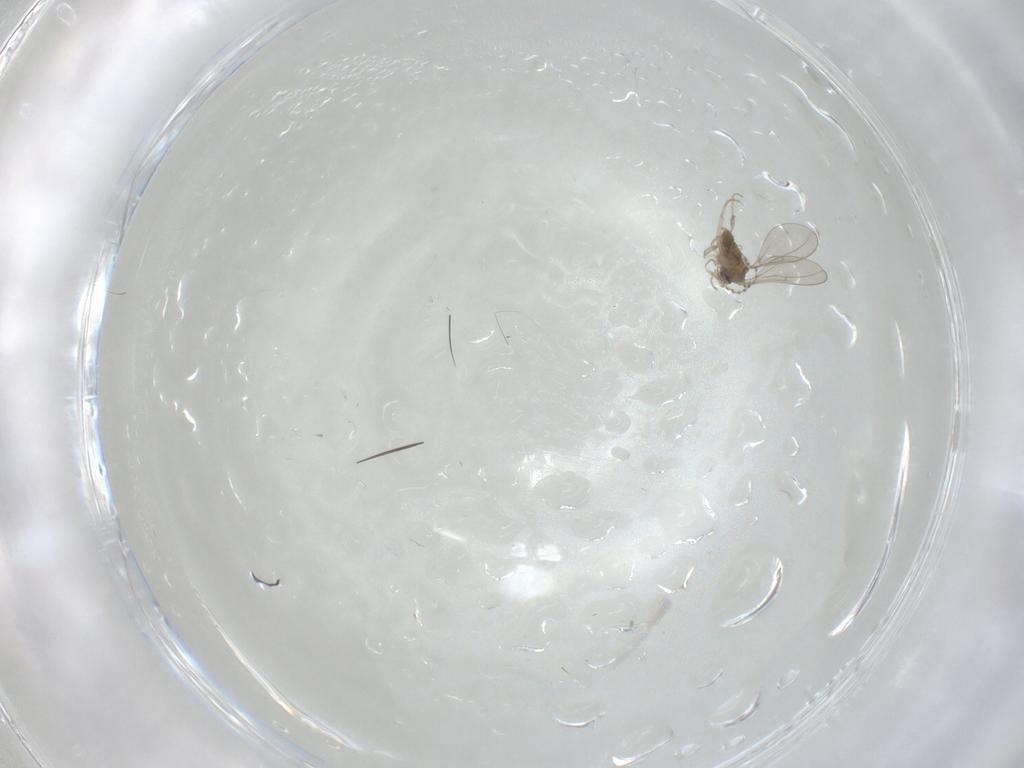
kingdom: Animalia
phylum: Arthropoda
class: Insecta
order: Diptera
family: Cecidomyiidae
